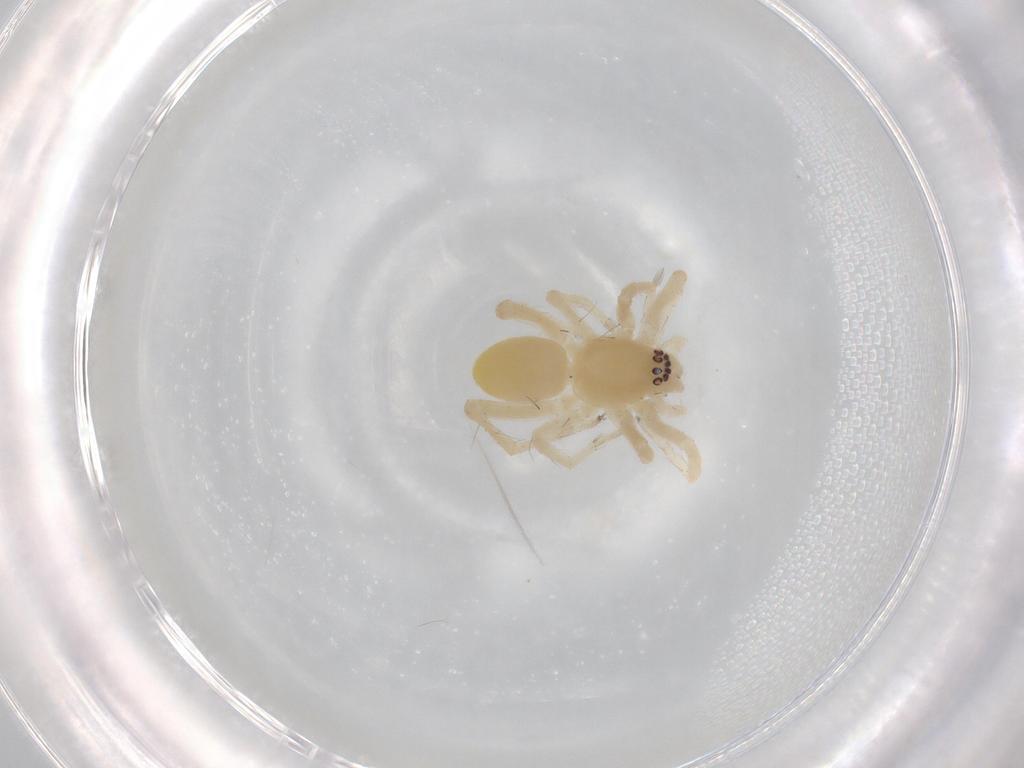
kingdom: Animalia
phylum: Arthropoda
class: Arachnida
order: Araneae
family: Anyphaenidae
